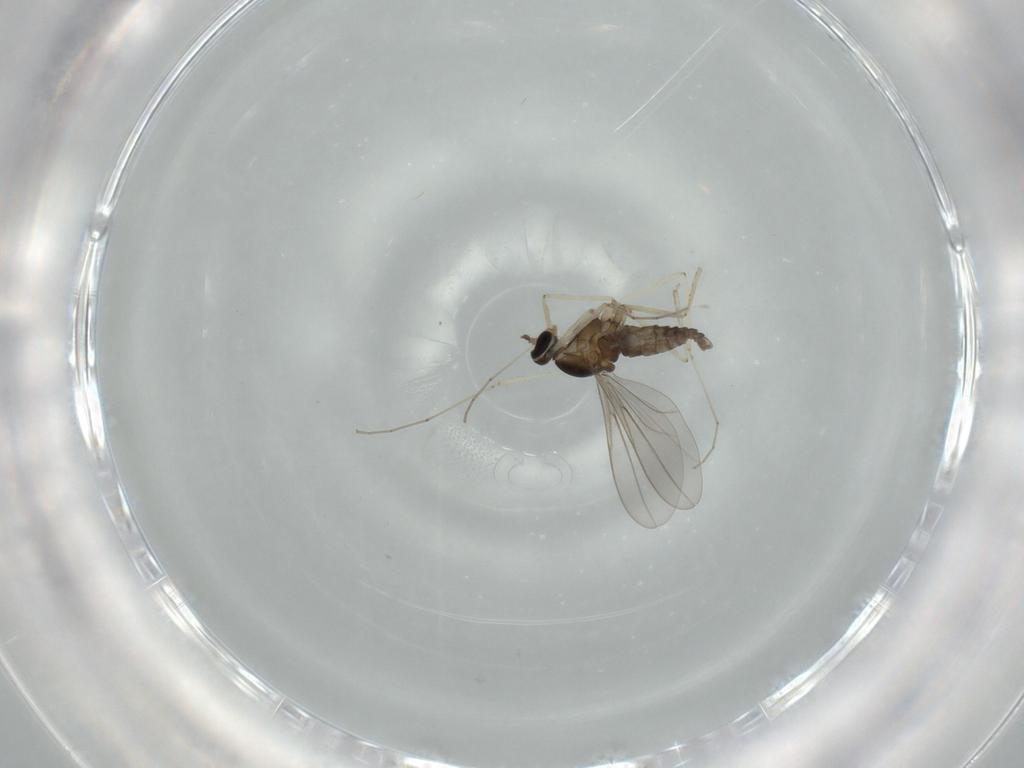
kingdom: Animalia
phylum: Arthropoda
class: Insecta
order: Diptera
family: Cecidomyiidae
